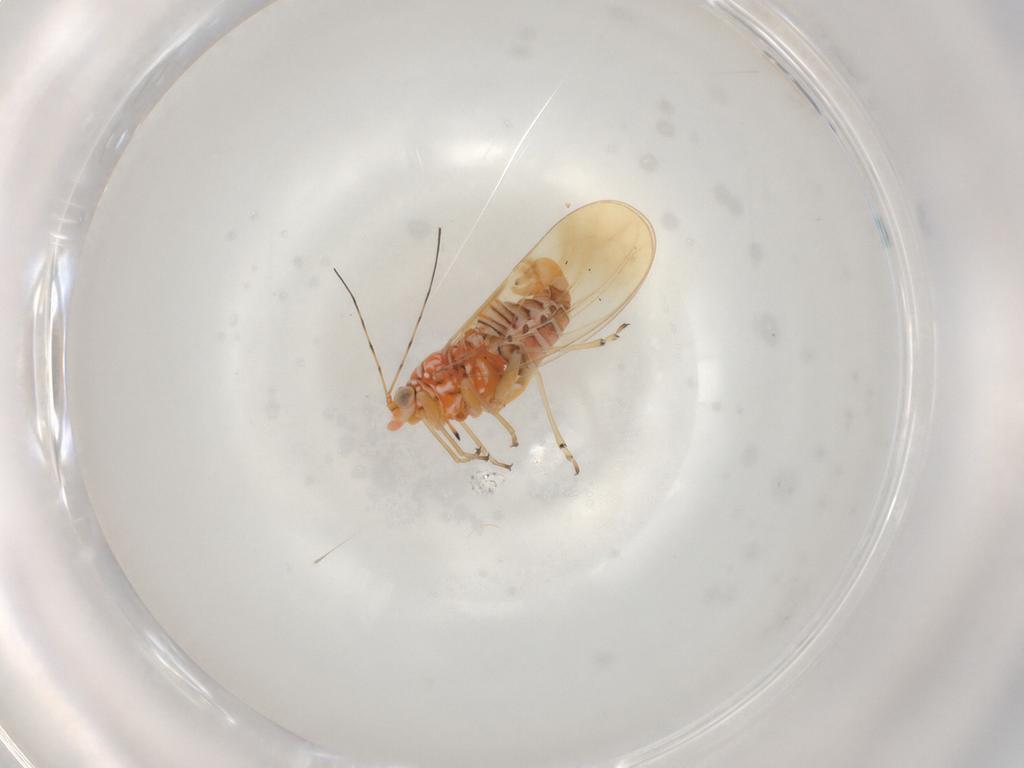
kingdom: Animalia
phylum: Arthropoda
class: Insecta
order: Hemiptera
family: Psyllidae
